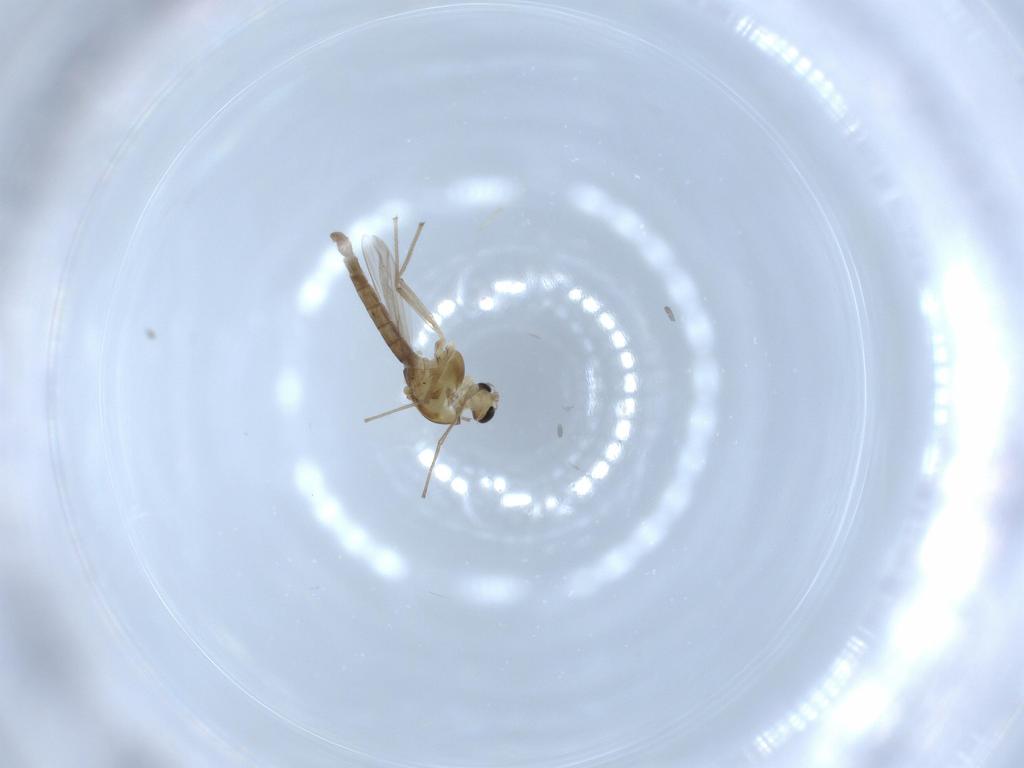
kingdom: Animalia
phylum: Arthropoda
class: Insecta
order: Diptera
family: Chironomidae
